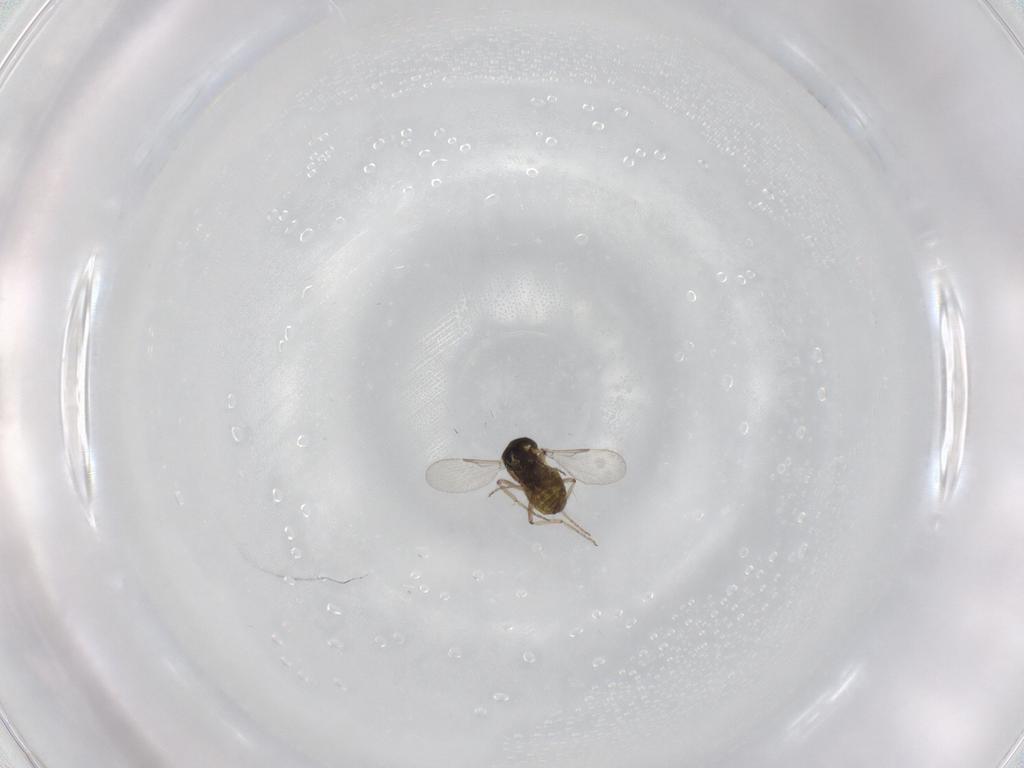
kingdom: Animalia
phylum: Arthropoda
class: Insecta
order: Diptera
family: Ceratopogonidae
